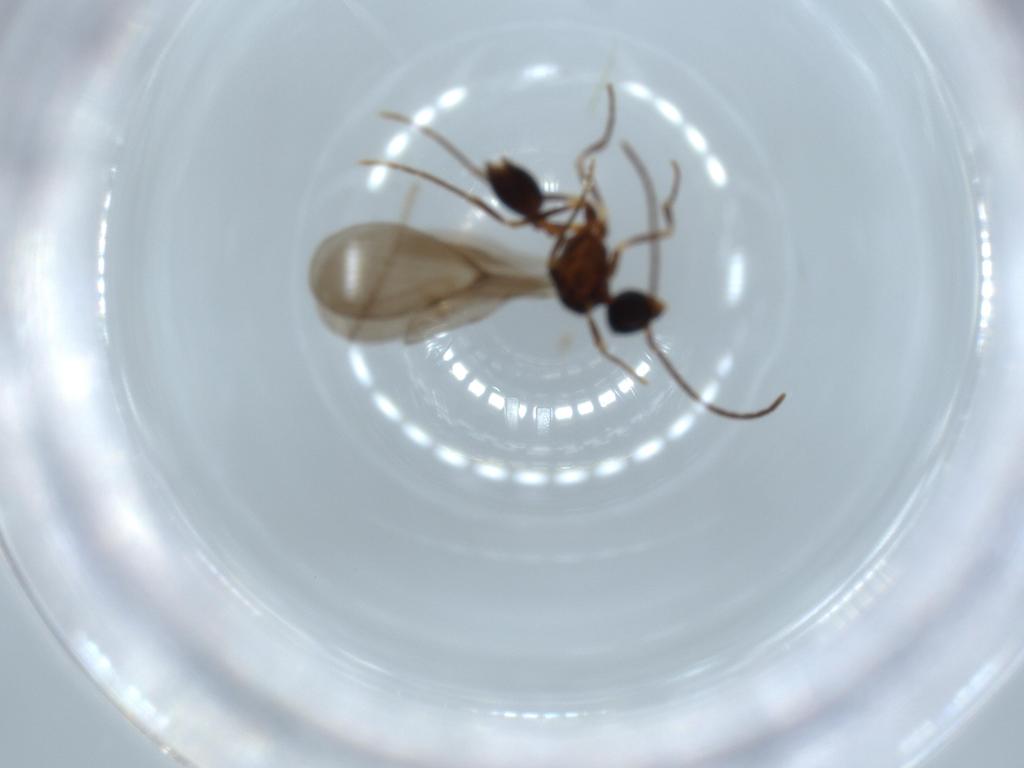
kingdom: Animalia
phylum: Arthropoda
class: Insecta
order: Hymenoptera
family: Formicidae
